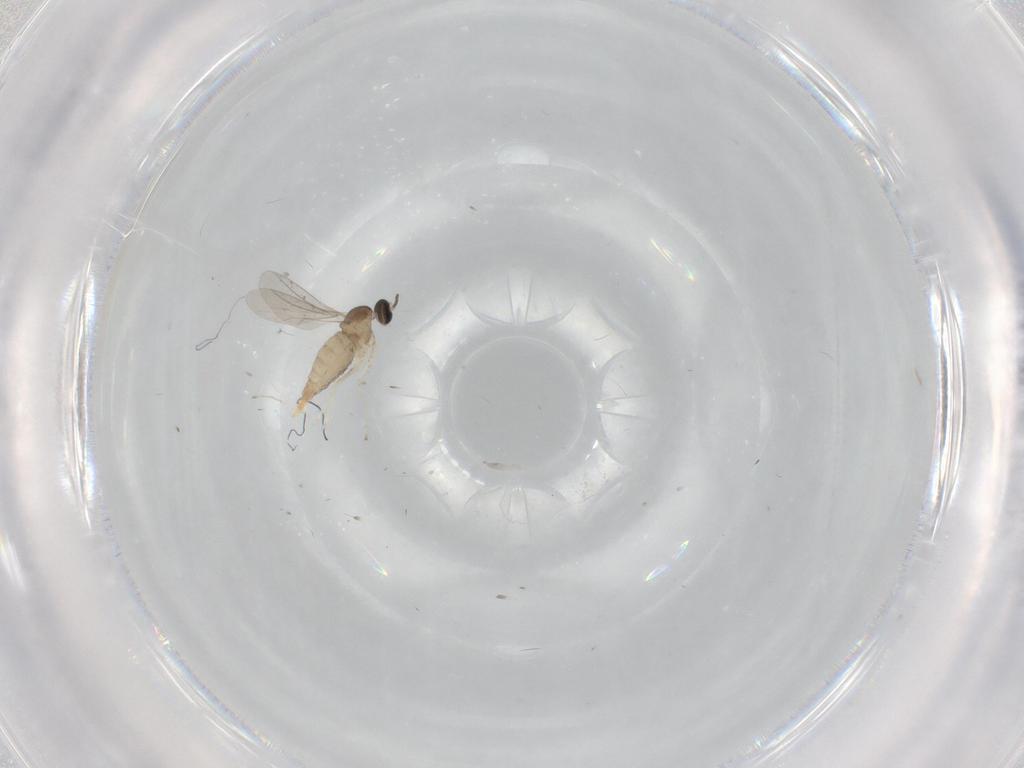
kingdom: Animalia
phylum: Arthropoda
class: Insecta
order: Diptera
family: Cecidomyiidae
